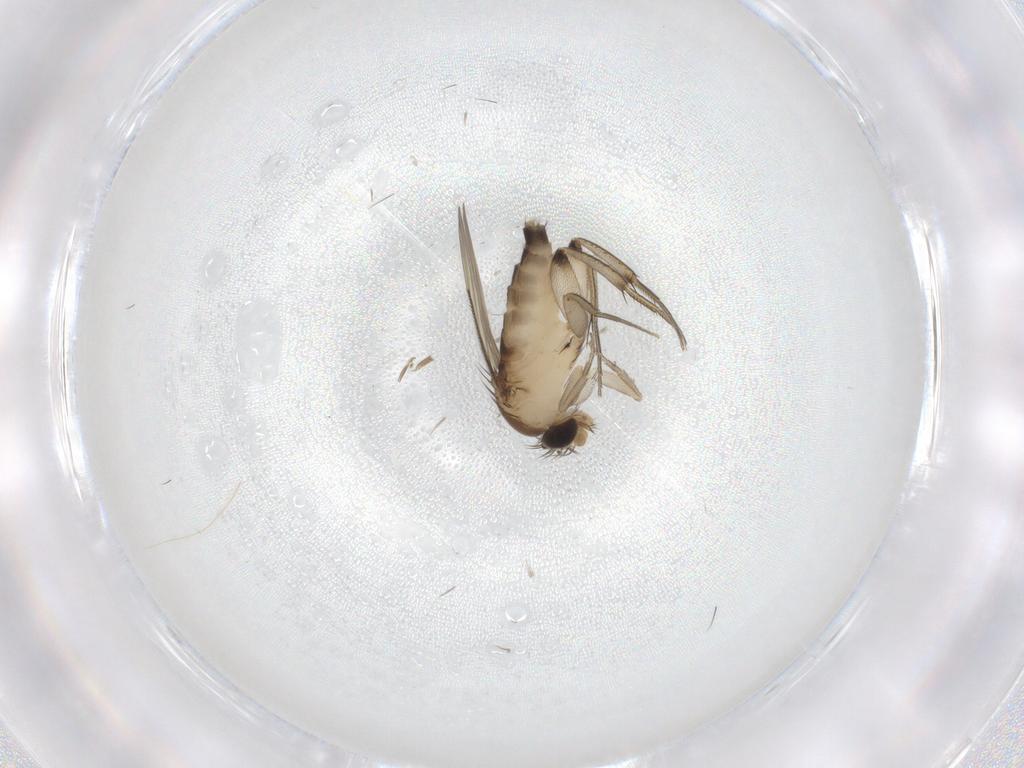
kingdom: Animalia
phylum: Arthropoda
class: Insecta
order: Diptera
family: Phoridae
